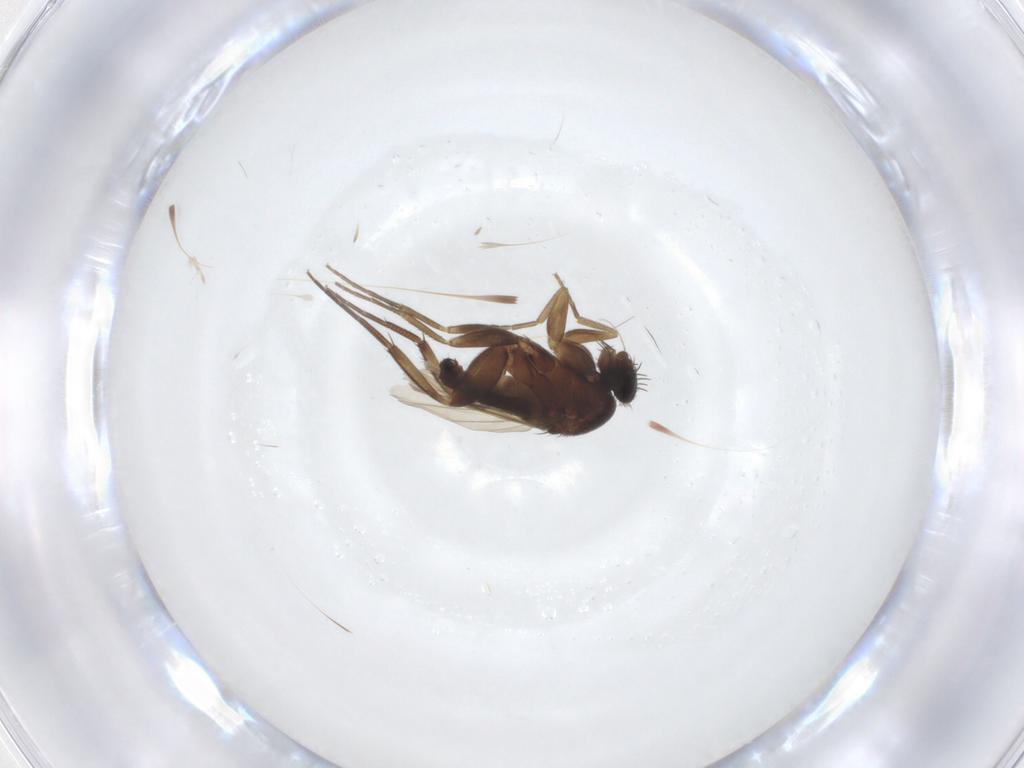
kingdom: Animalia
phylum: Arthropoda
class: Insecta
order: Diptera
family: Phoridae
